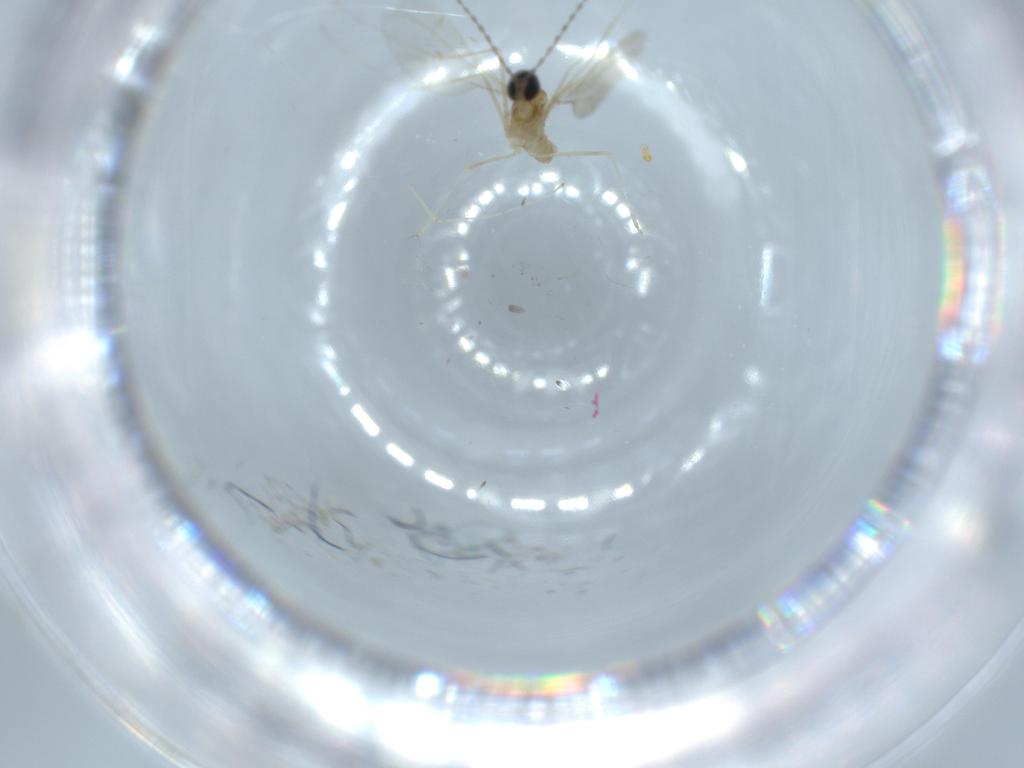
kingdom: Animalia
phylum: Arthropoda
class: Insecta
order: Diptera
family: Cecidomyiidae
